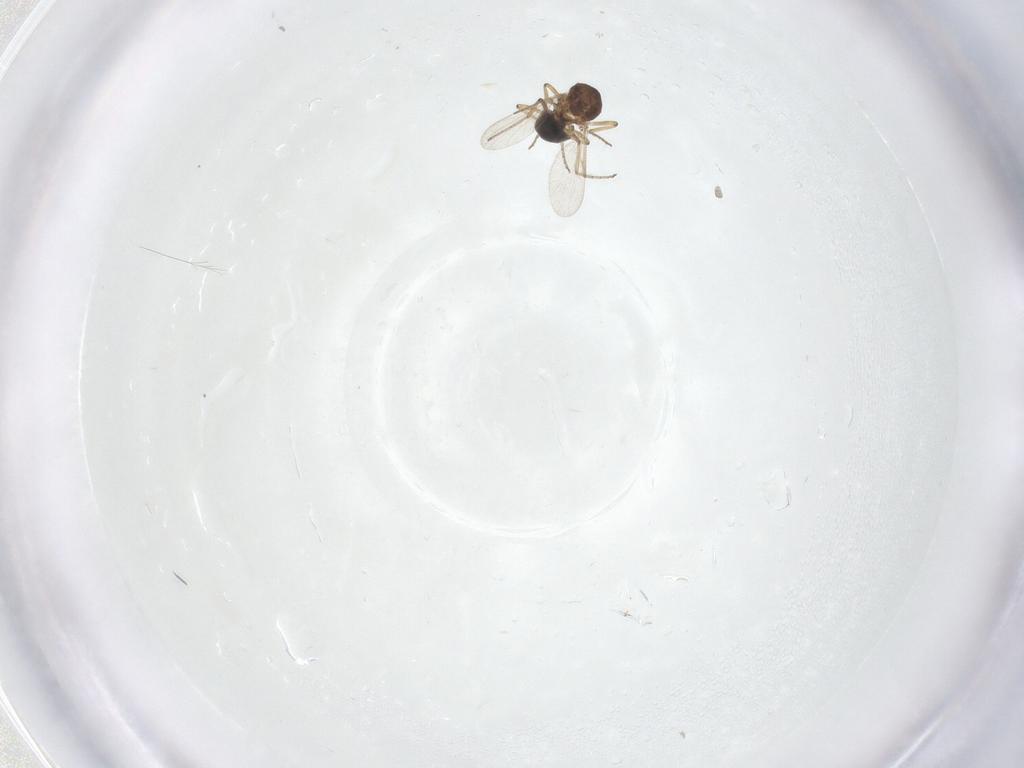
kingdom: Animalia
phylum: Arthropoda
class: Insecta
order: Diptera
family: Ceratopogonidae
